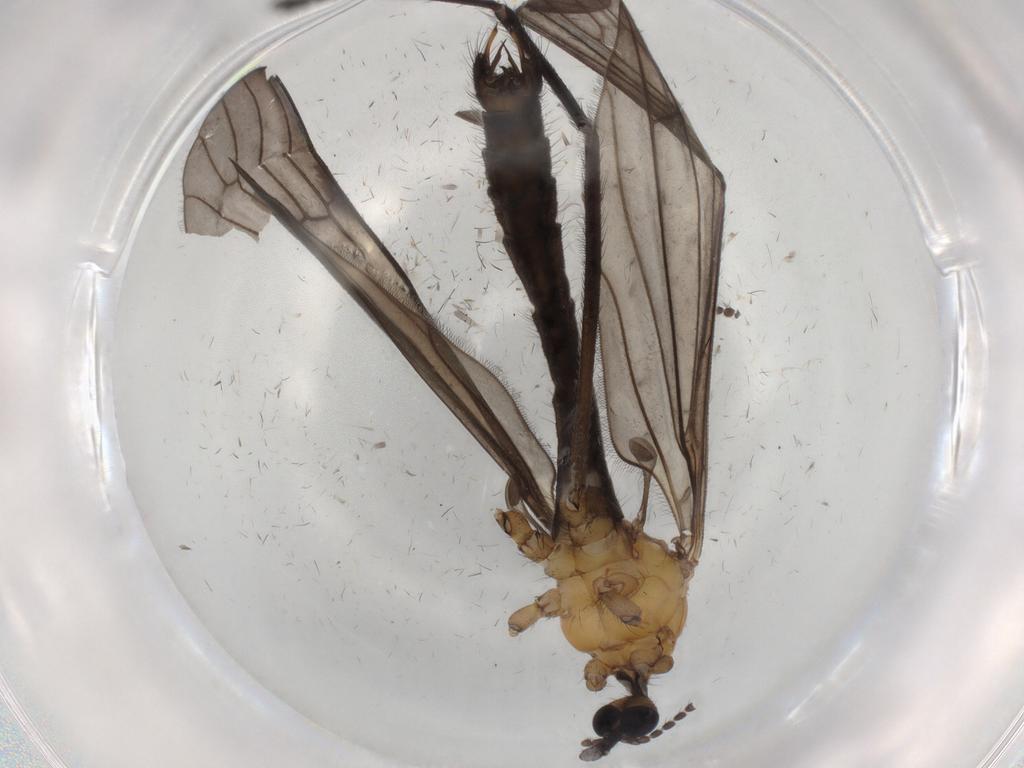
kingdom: Animalia
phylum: Arthropoda
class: Insecta
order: Diptera
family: Limoniidae
